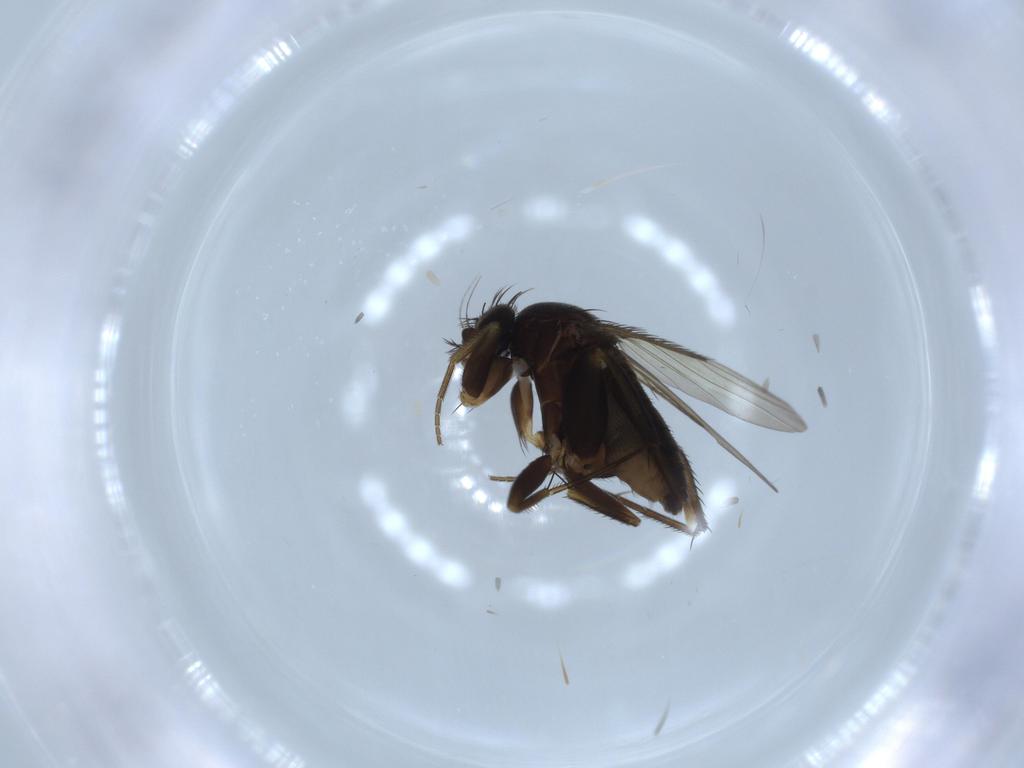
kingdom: Animalia
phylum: Arthropoda
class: Insecta
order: Diptera
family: Phoridae
